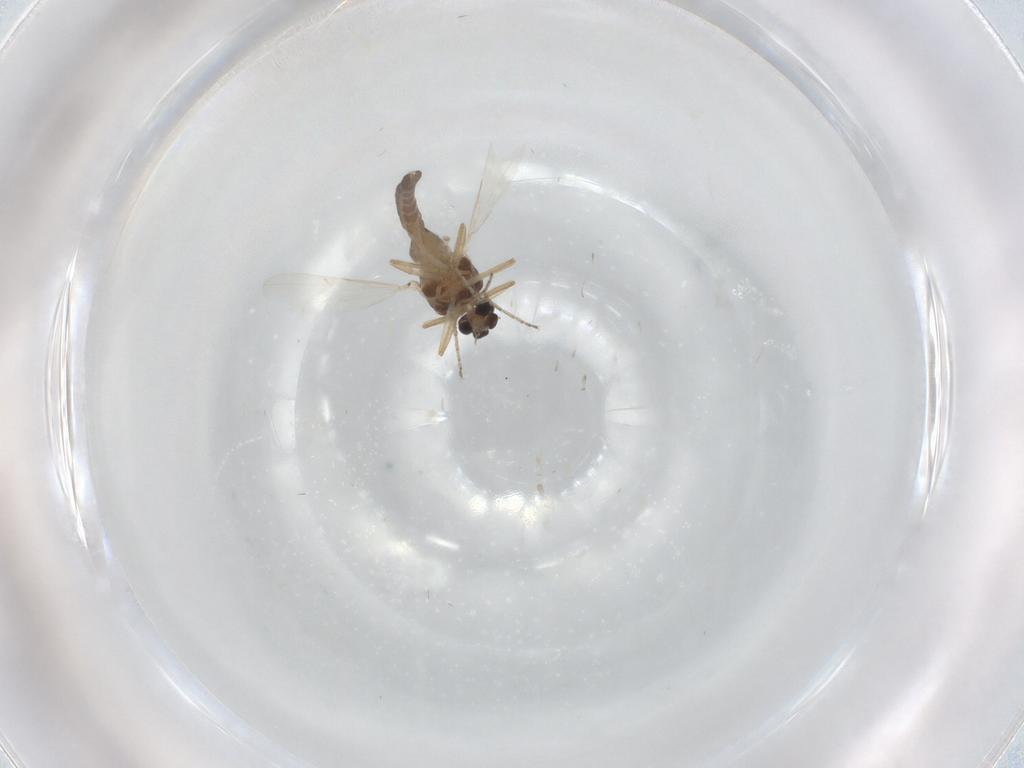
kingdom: Animalia
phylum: Arthropoda
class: Insecta
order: Diptera
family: Ceratopogonidae
